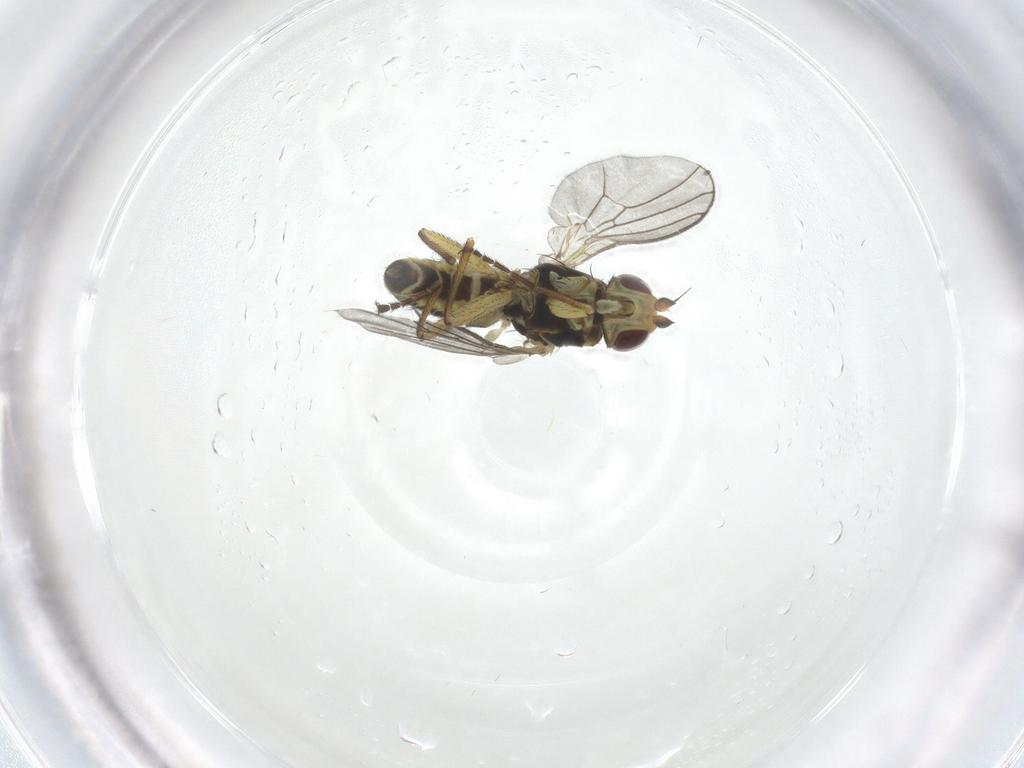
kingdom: Animalia
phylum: Arthropoda
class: Insecta
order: Diptera
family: Agromyzidae
